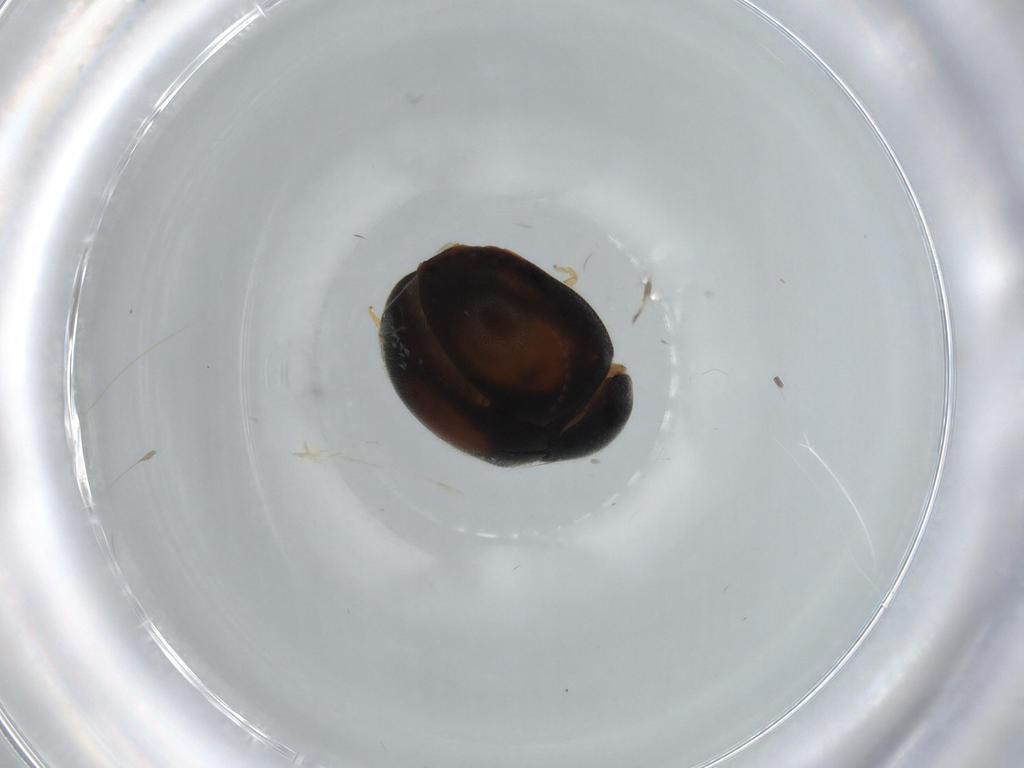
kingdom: Animalia
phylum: Arthropoda
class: Insecta
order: Coleoptera
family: Coccinellidae
